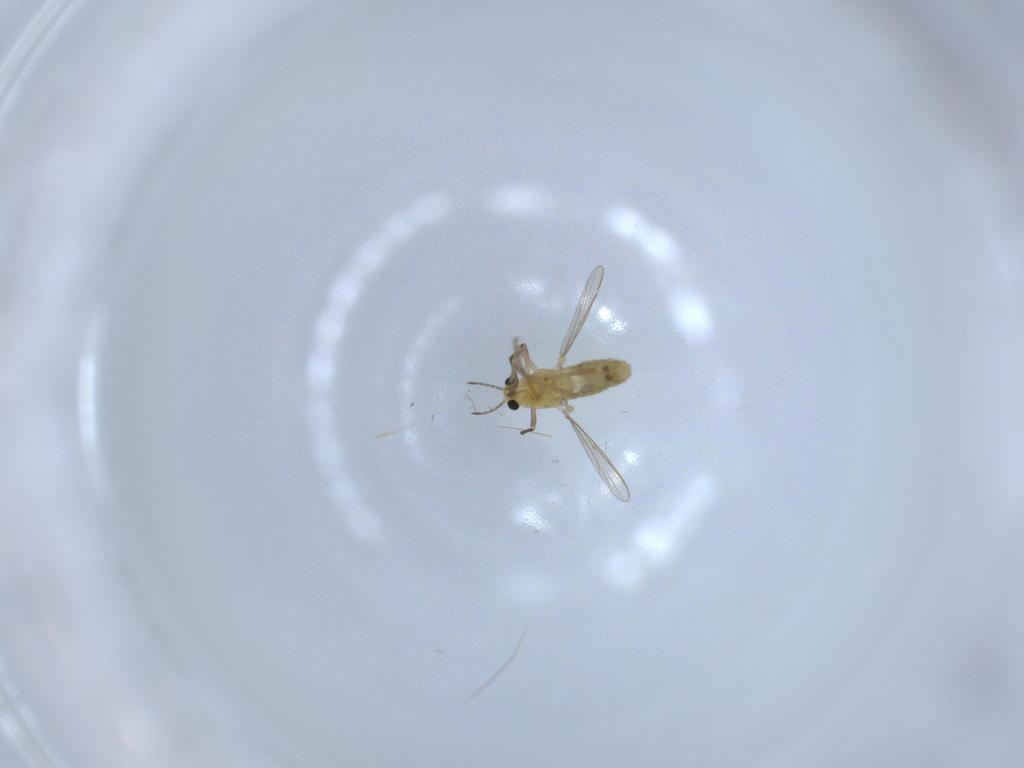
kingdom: Animalia
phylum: Arthropoda
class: Insecta
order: Diptera
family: Chironomidae
